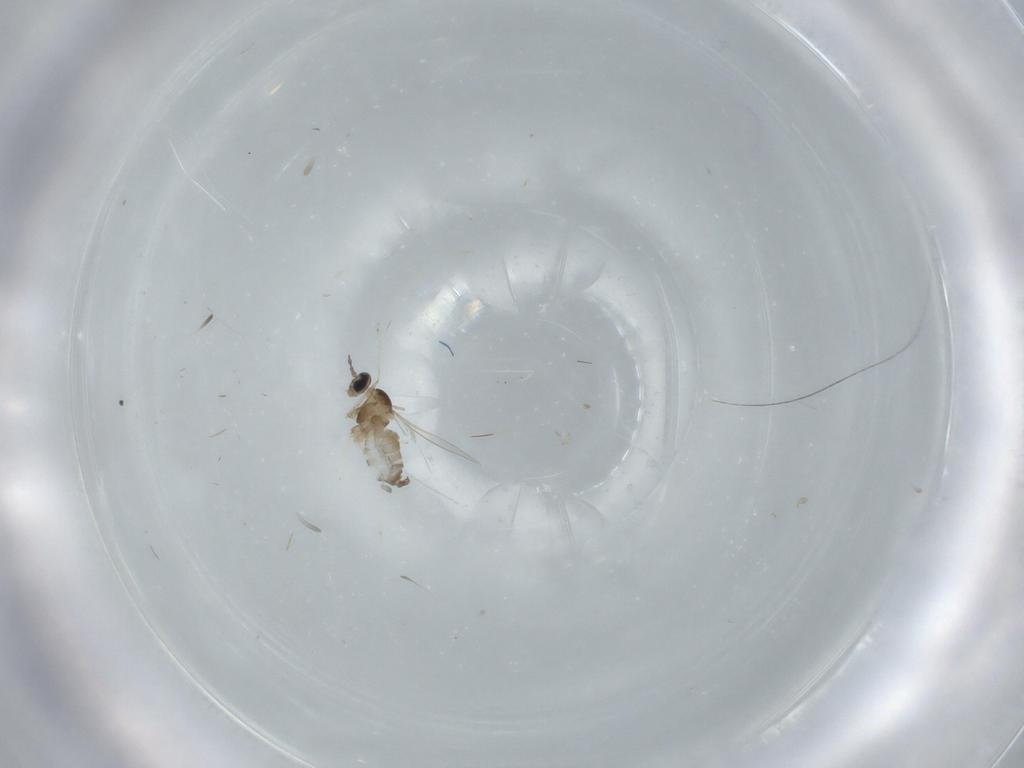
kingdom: Animalia
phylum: Arthropoda
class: Insecta
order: Diptera
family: Cecidomyiidae
